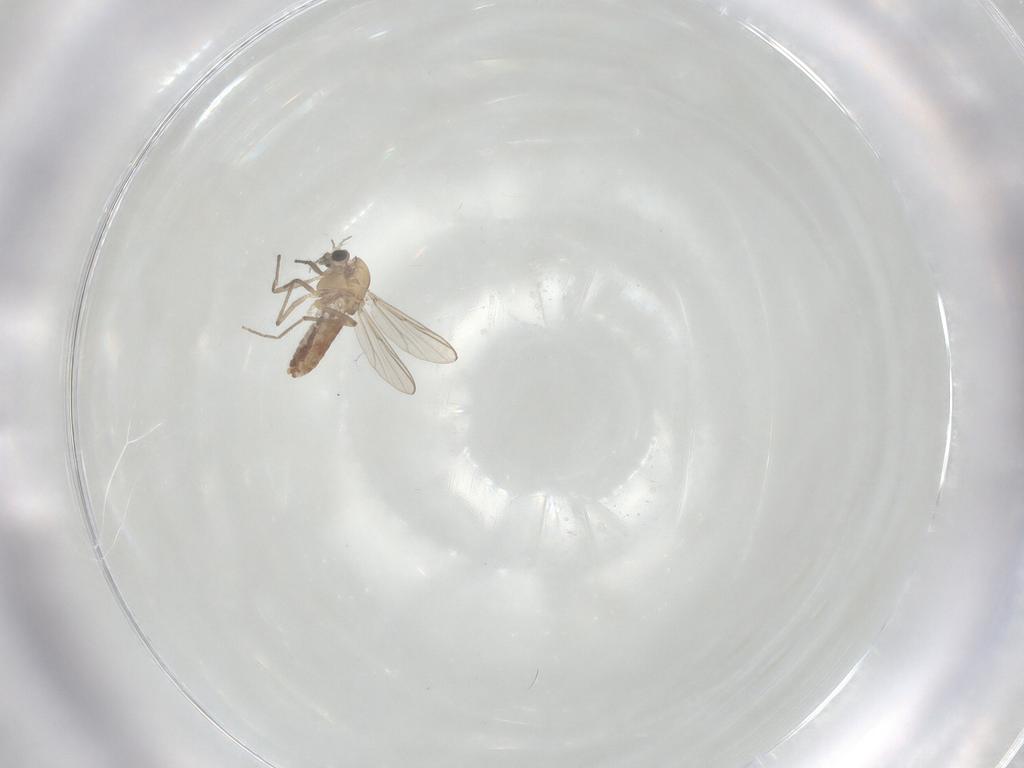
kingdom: Animalia
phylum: Arthropoda
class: Insecta
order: Diptera
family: Chironomidae
